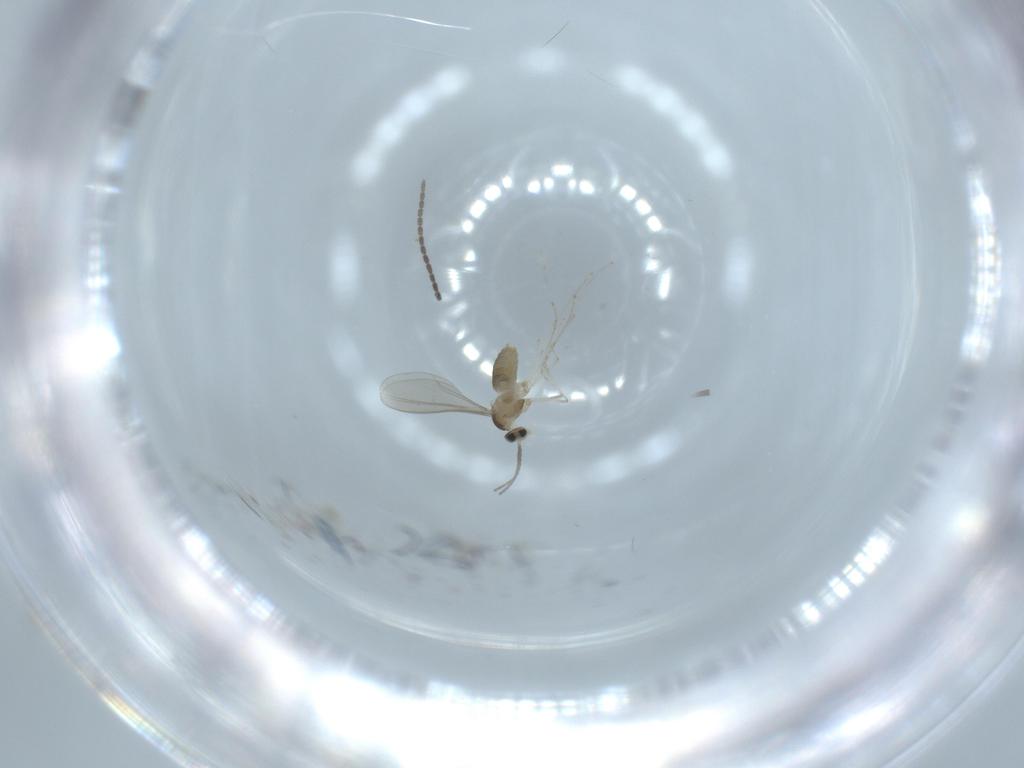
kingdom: Animalia
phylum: Arthropoda
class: Insecta
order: Diptera
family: Cecidomyiidae
